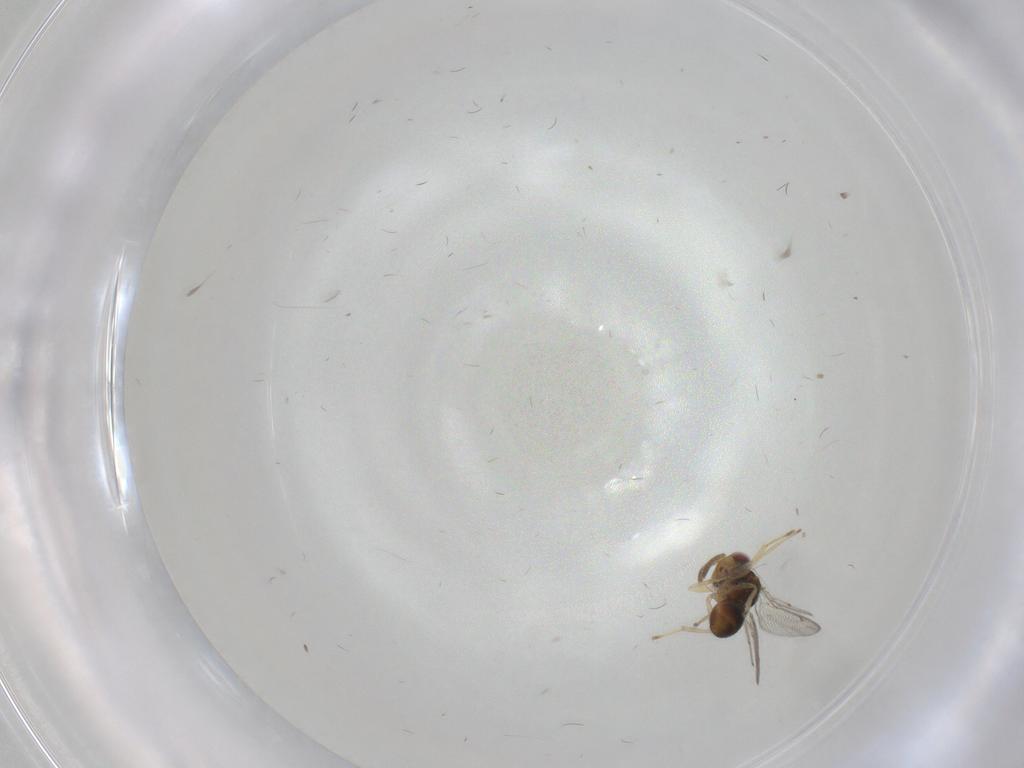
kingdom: Animalia
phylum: Arthropoda
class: Insecta
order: Hymenoptera
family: Eurytomidae
